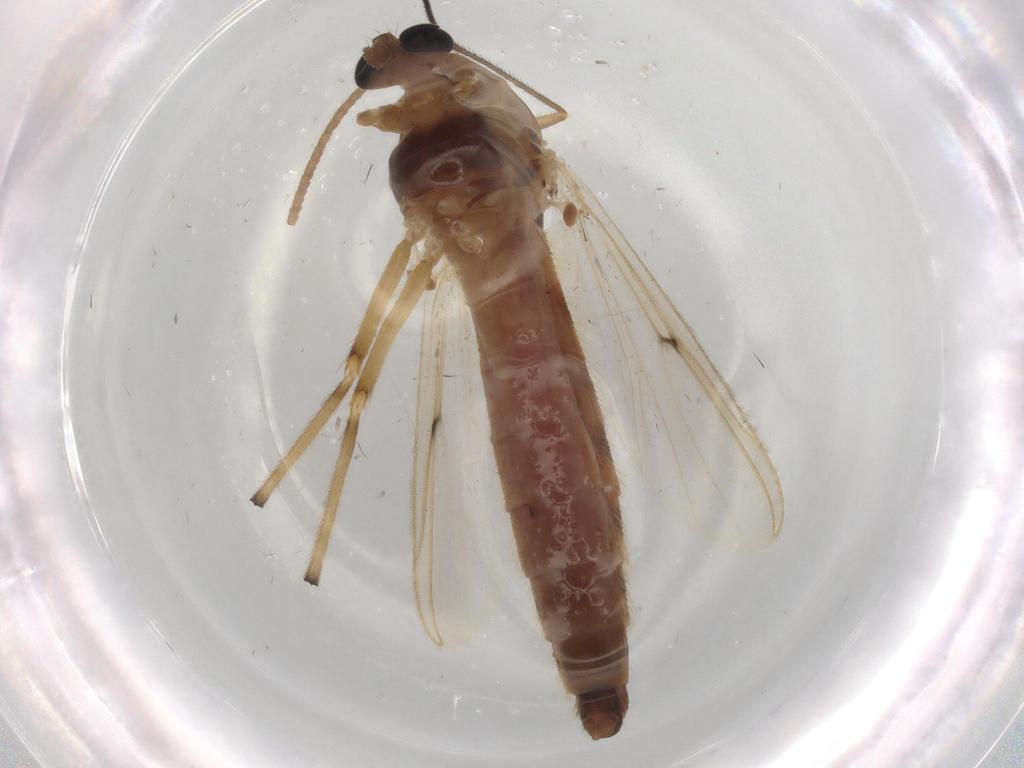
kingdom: Animalia
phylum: Arthropoda
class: Insecta
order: Diptera
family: Chironomidae
